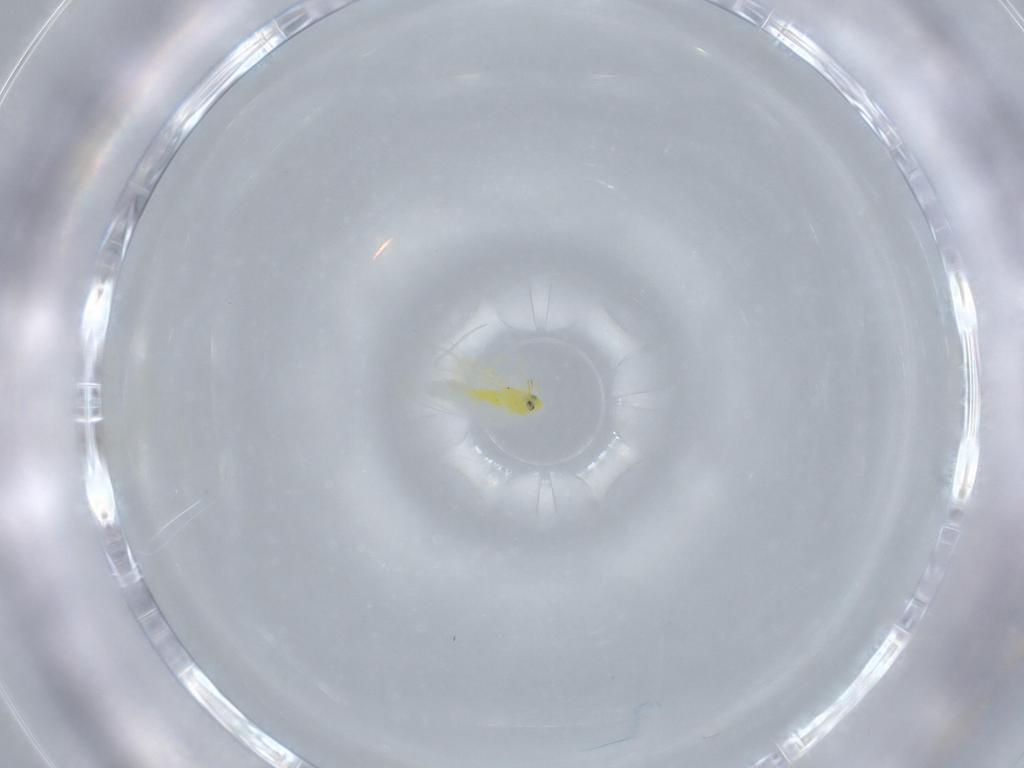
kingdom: Animalia
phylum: Arthropoda
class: Insecta
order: Hemiptera
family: Aleyrodidae
